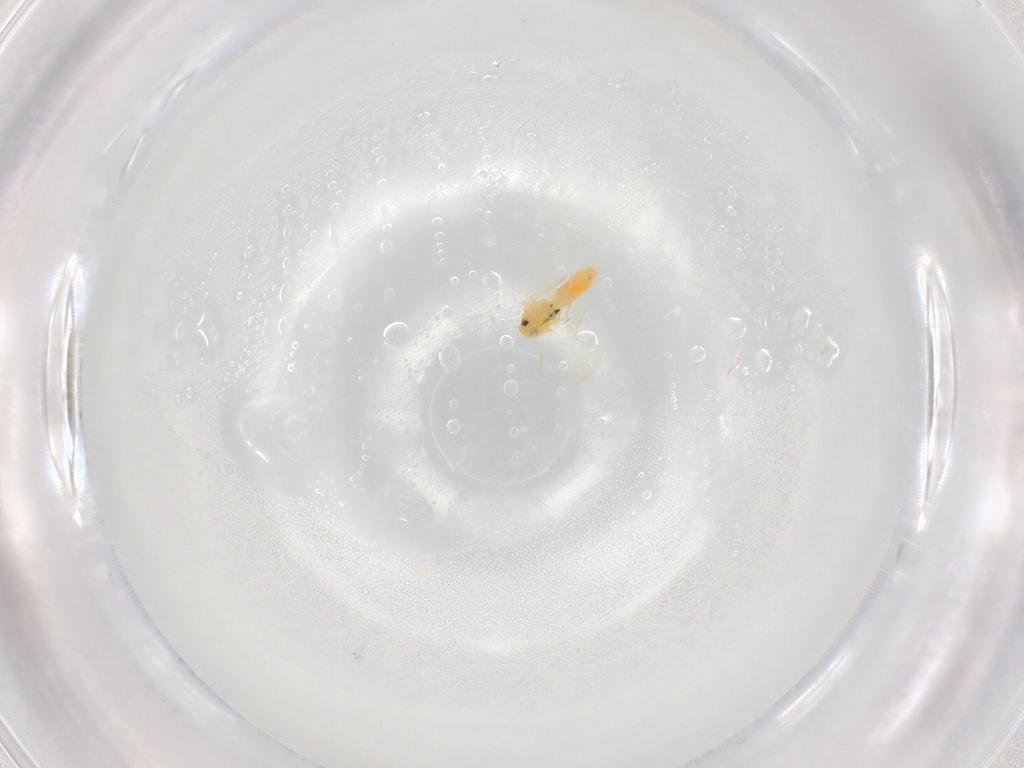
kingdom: Animalia
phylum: Arthropoda
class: Insecta
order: Hemiptera
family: Aleyrodidae
